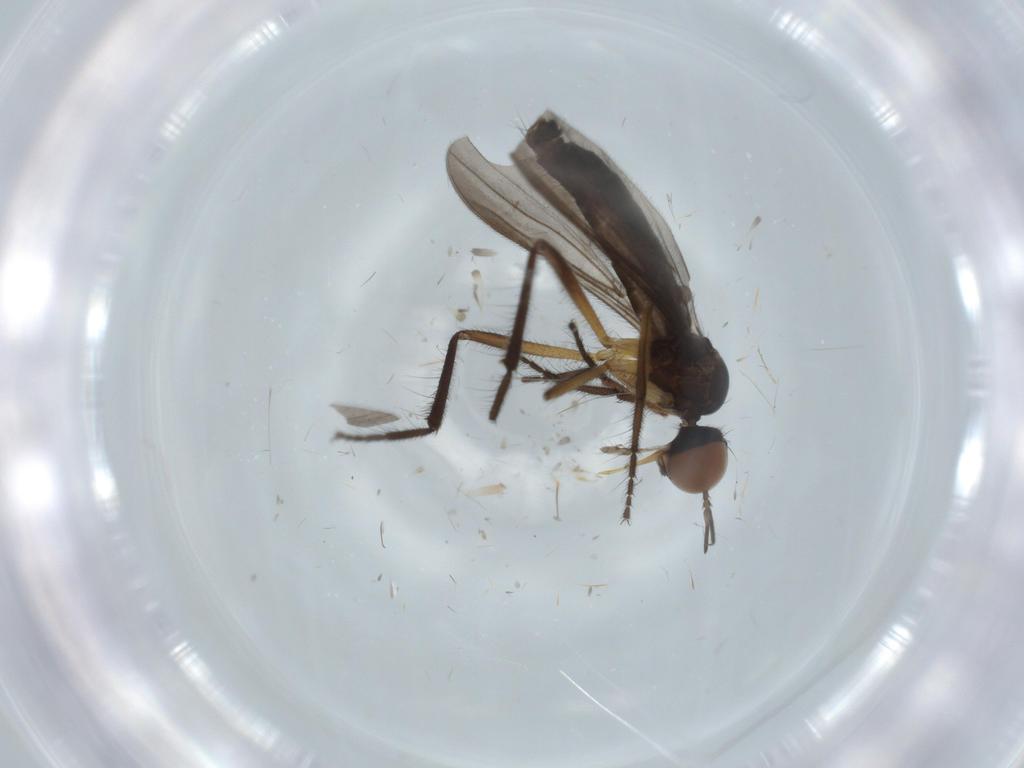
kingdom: Animalia
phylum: Arthropoda
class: Insecta
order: Diptera
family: Empididae
